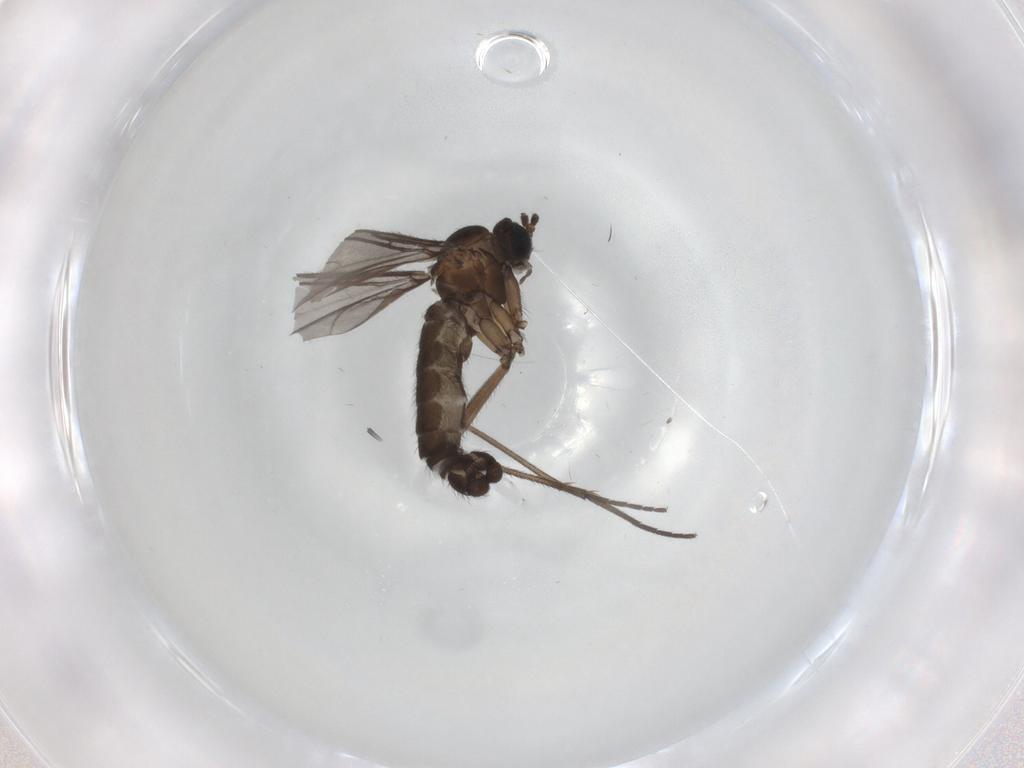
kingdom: Animalia
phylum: Arthropoda
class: Insecta
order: Diptera
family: Sciaridae
